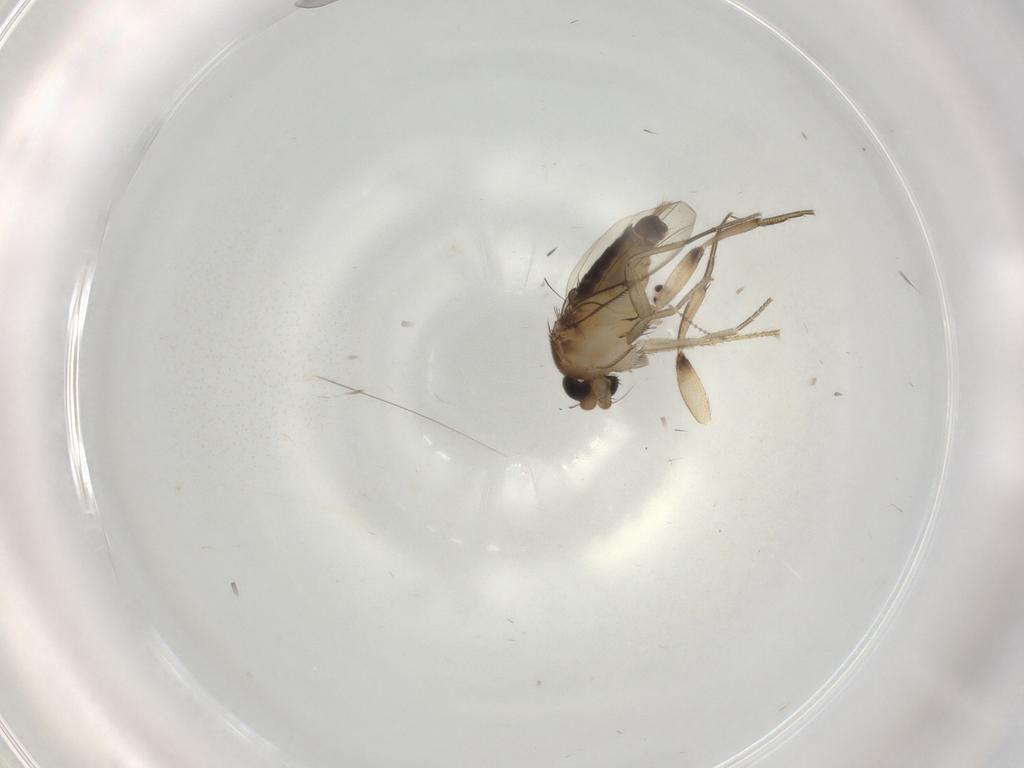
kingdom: Animalia
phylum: Arthropoda
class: Insecta
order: Diptera
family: Phoridae
